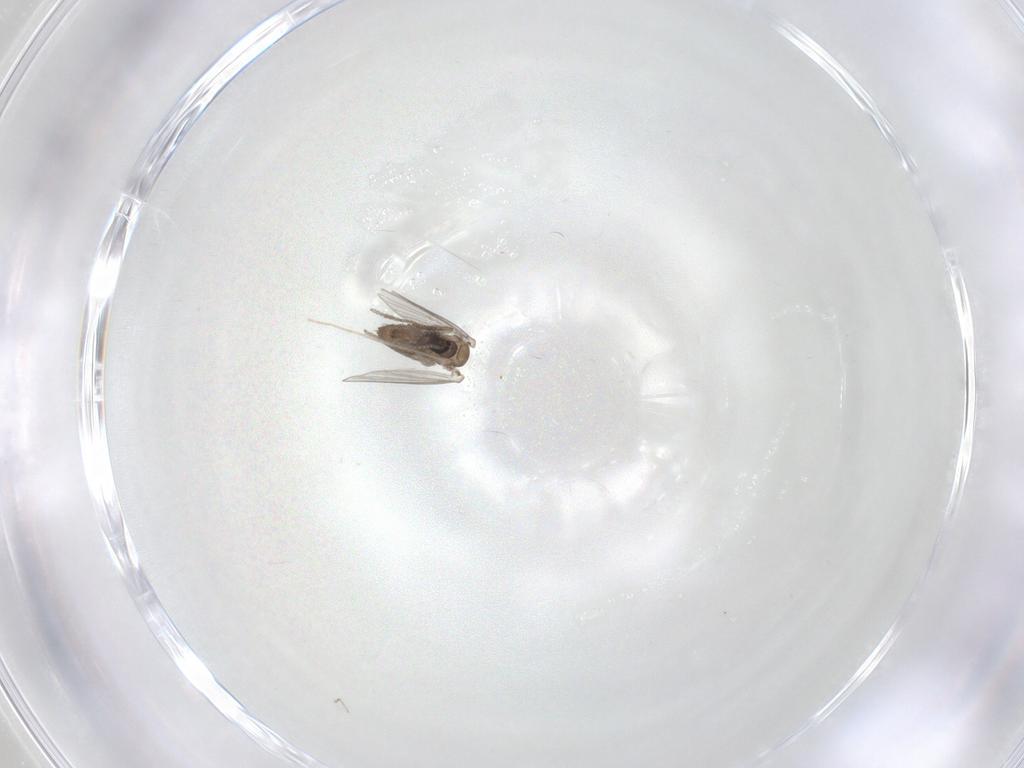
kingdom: Animalia
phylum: Arthropoda
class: Insecta
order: Diptera
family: Psychodidae
